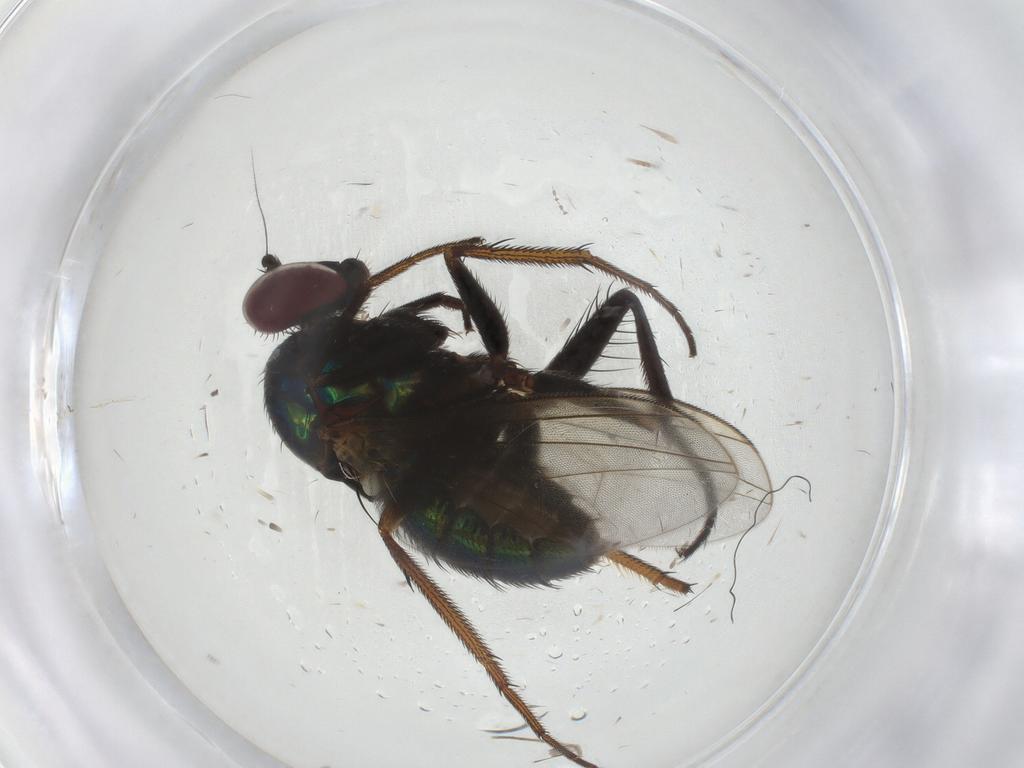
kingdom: Animalia
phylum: Arthropoda
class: Insecta
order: Diptera
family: Dolichopodidae
